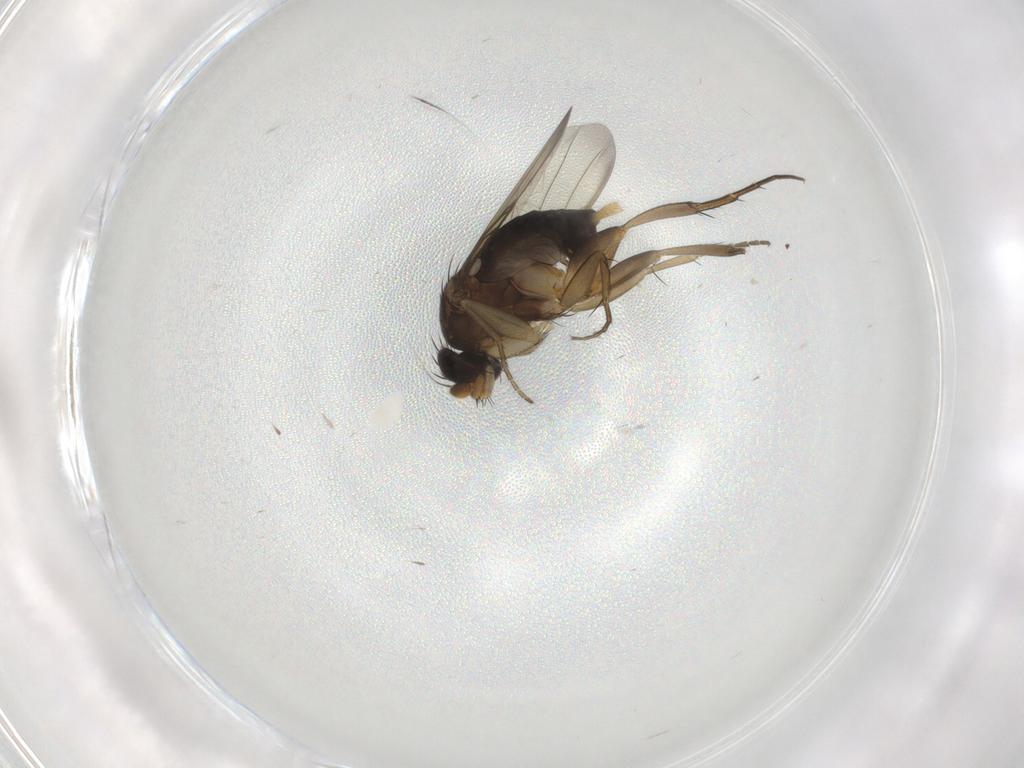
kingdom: Animalia
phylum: Arthropoda
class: Insecta
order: Diptera
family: Phoridae
